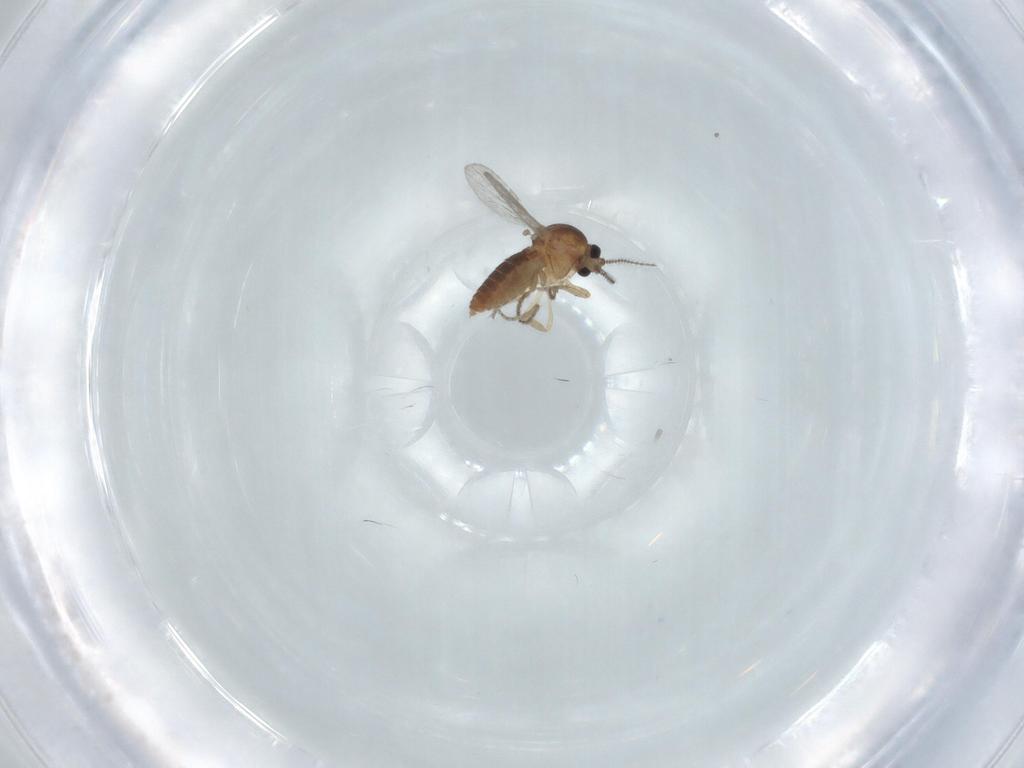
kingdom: Animalia
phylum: Arthropoda
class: Insecta
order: Diptera
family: Ceratopogonidae
